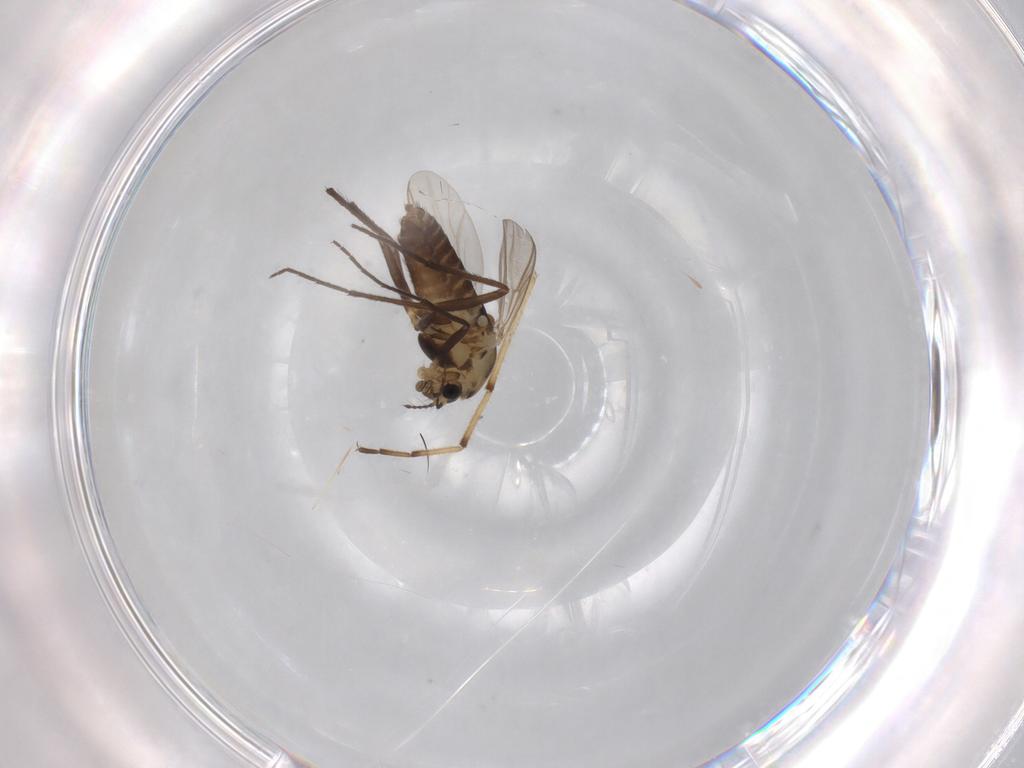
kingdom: Animalia
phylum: Arthropoda
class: Insecta
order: Diptera
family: Chironomidae
